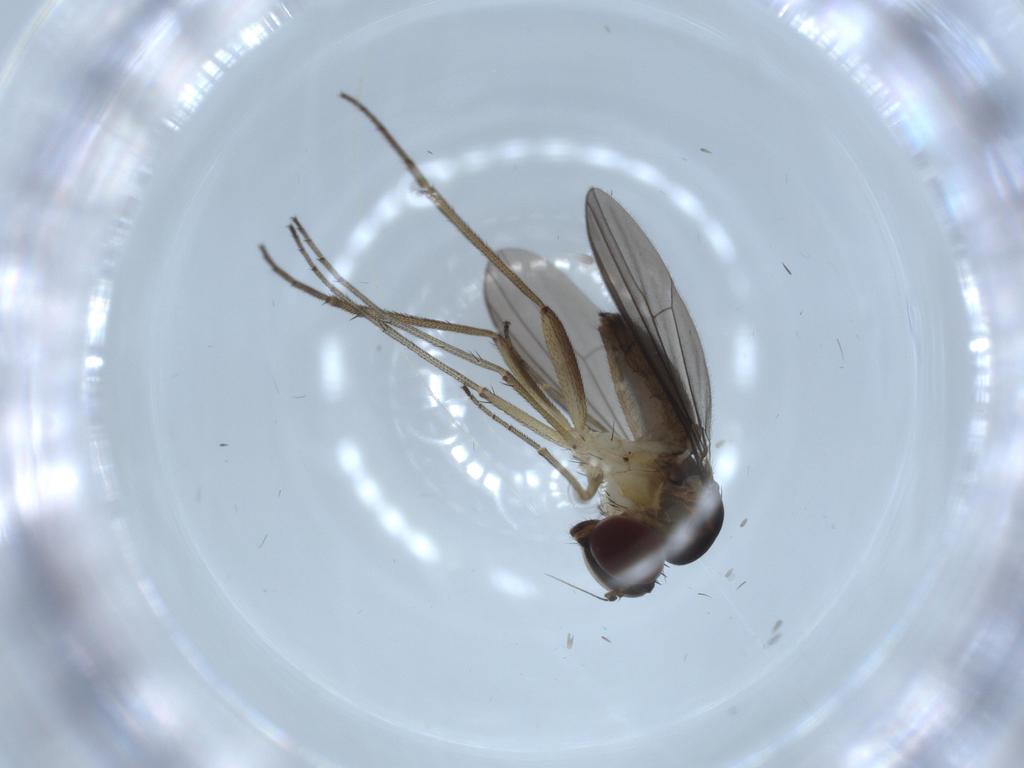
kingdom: Animalia
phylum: Arthropoda
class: Insecta
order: Diptera
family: Dolichopodidae
